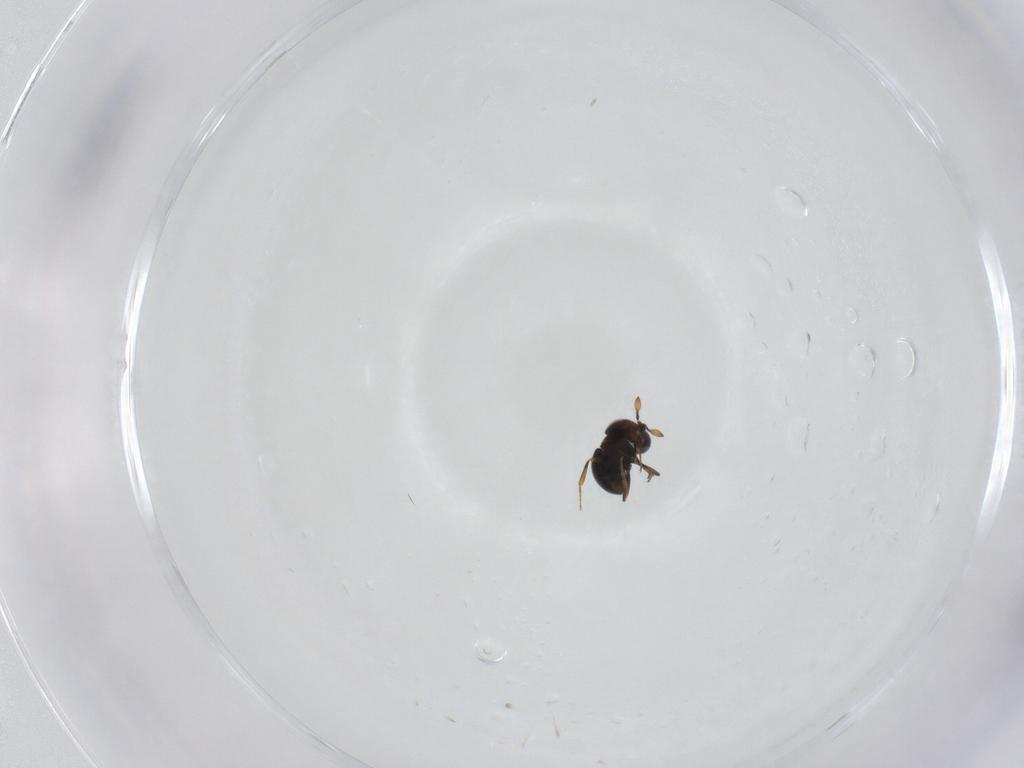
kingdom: Animalia
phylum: Arthropoda
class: Insecta
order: Hymenoptera
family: Scelionidae
